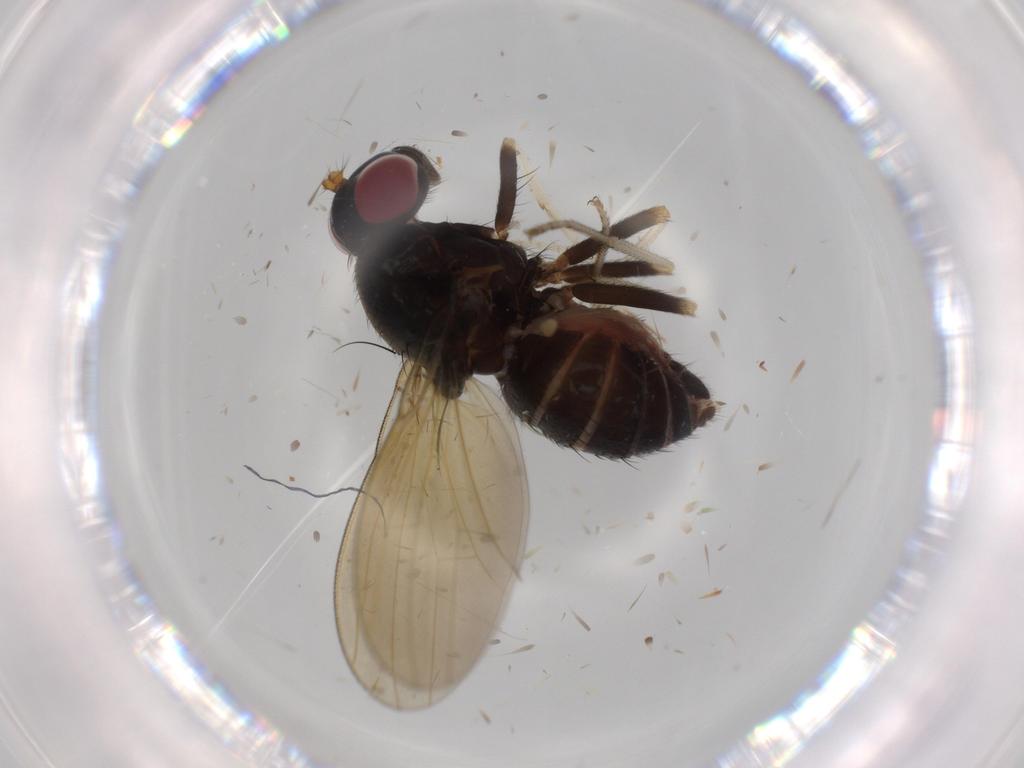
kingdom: Animalia
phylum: Arthropoda
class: Insecta
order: Diptera
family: Sciaridae
